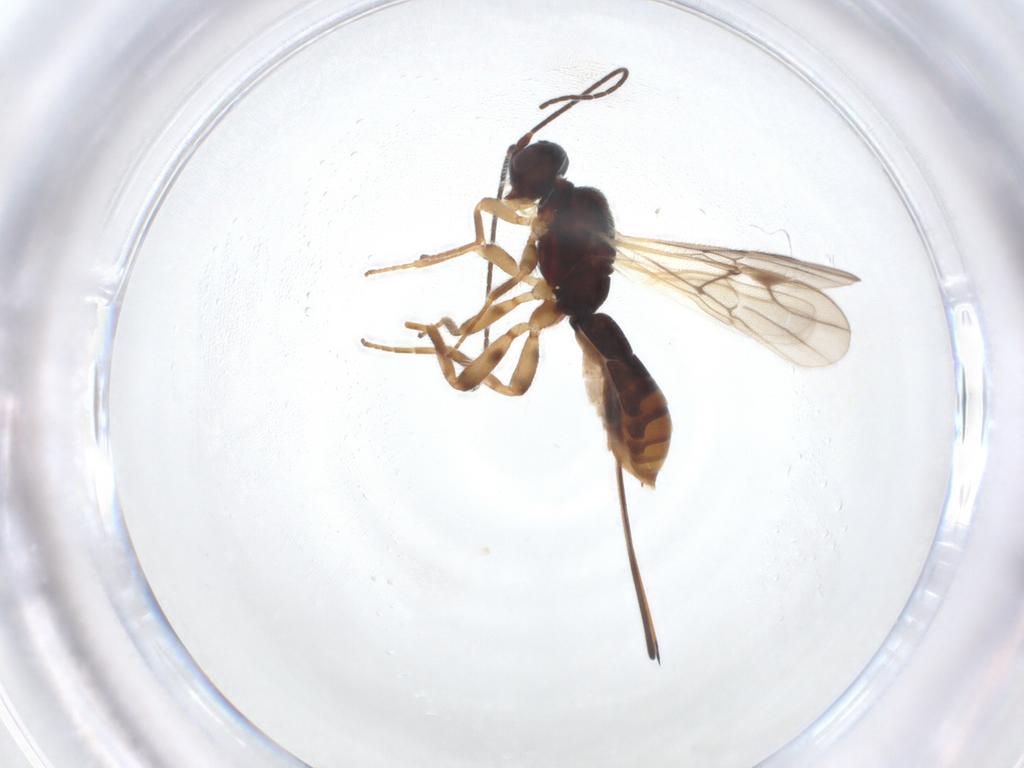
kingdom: Animalia
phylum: Arthropoda
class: Insecta
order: Hymenoptera
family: Braconidae
